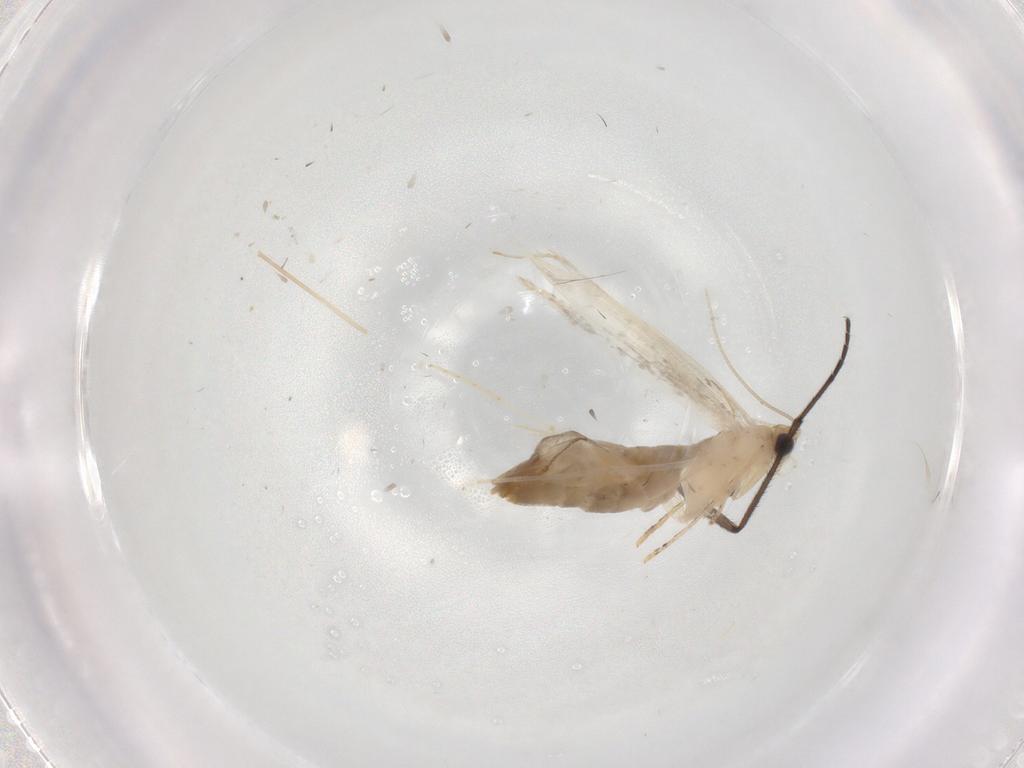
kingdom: Animalia
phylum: Arthropoda
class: Insecta
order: Lepidoptera
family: Tineidae
